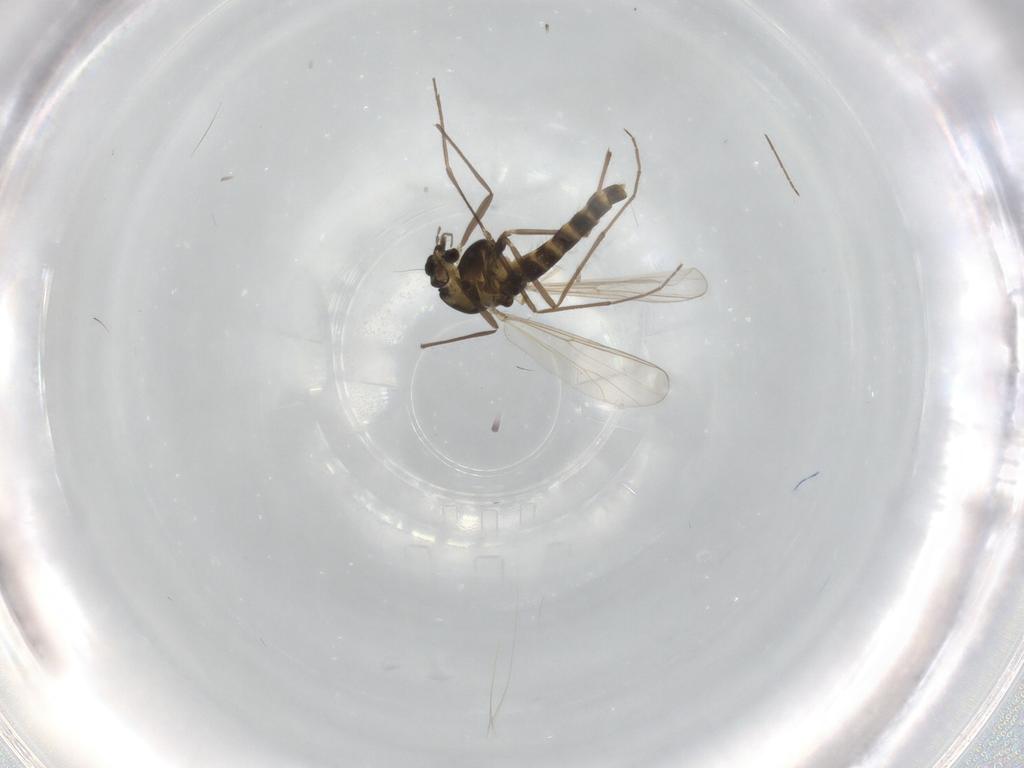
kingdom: Animalia
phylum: Arthropoda
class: Insecta
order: Diptera
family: Chironomidae
